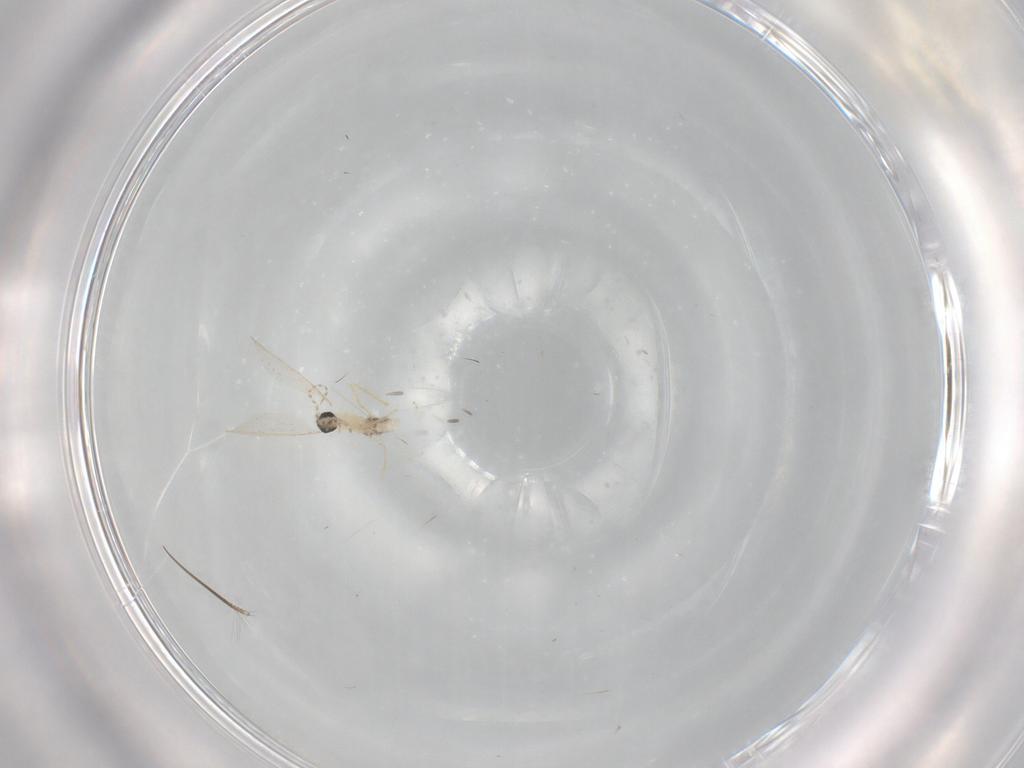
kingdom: Animalia
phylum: Arthropoda
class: Insecta
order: Diptera
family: Cecidomyiidae
